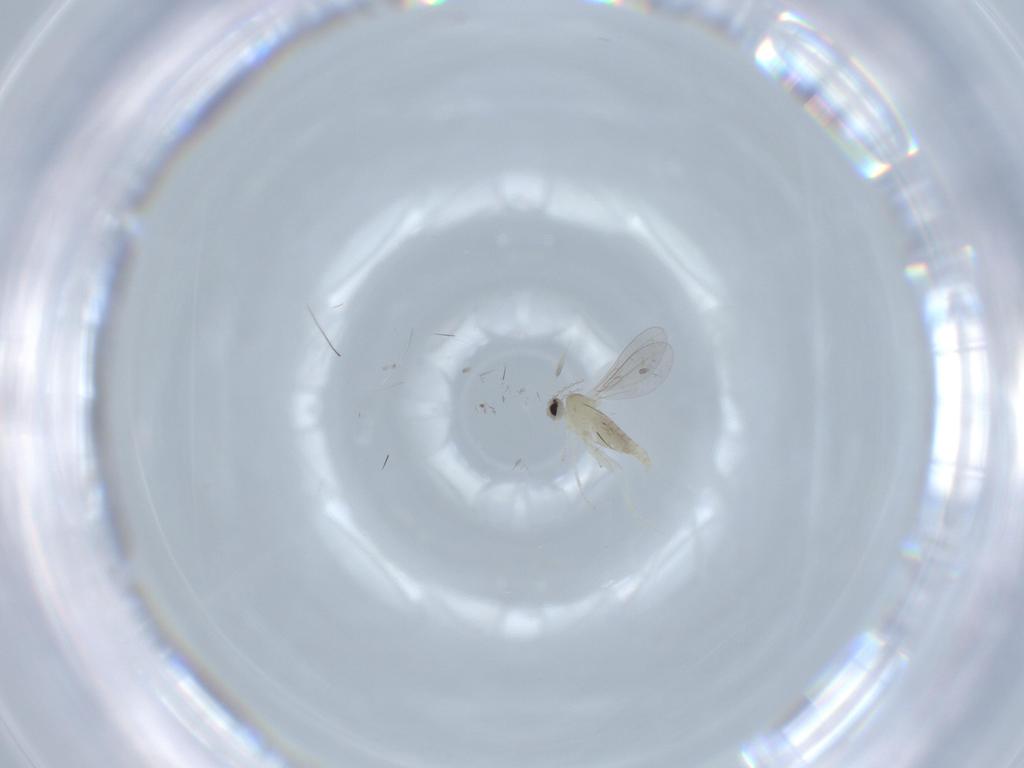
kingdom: Animalia
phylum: Arthropoda
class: Insecta
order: Diptera
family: Cecidomyiidae
